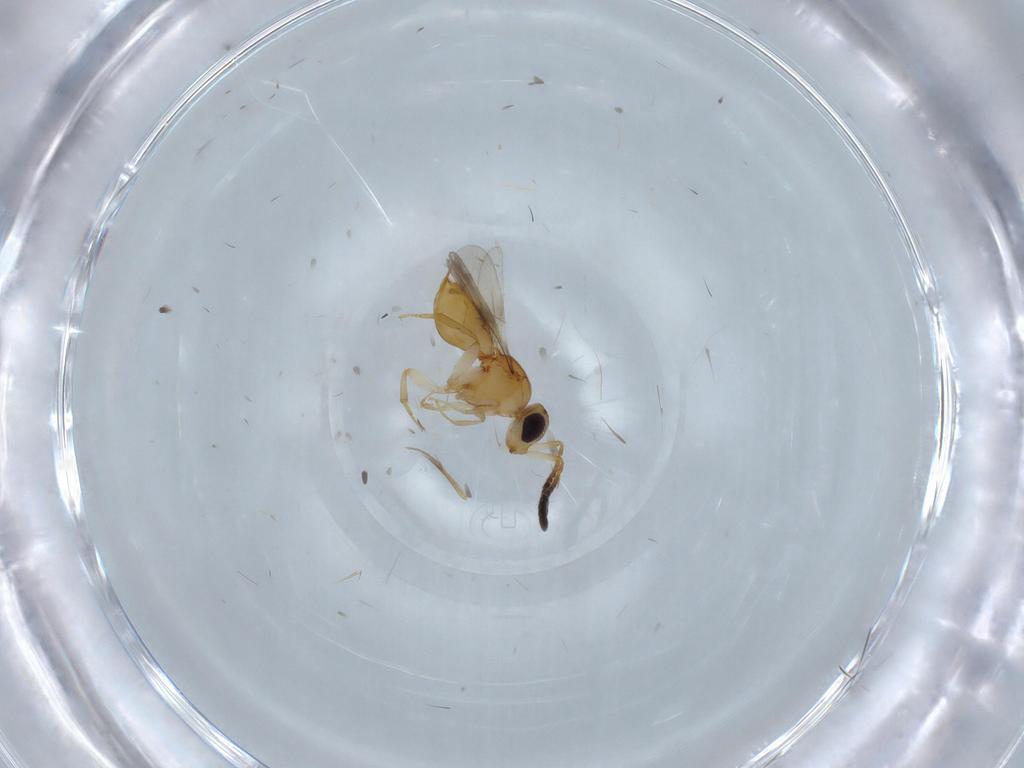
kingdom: Animalia
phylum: Arthropoda
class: Insecta
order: Hymenoptera
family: Ceraphronidae
